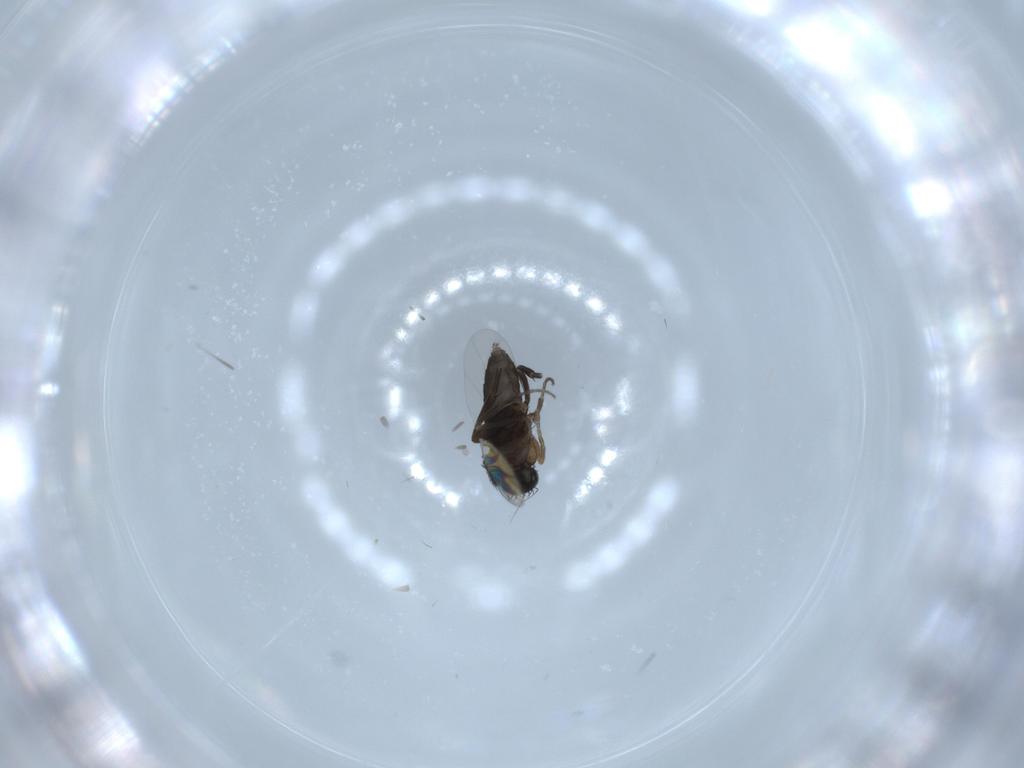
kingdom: Animalia
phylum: Arthropoda
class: Insecta
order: Diptera
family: Phoridae
